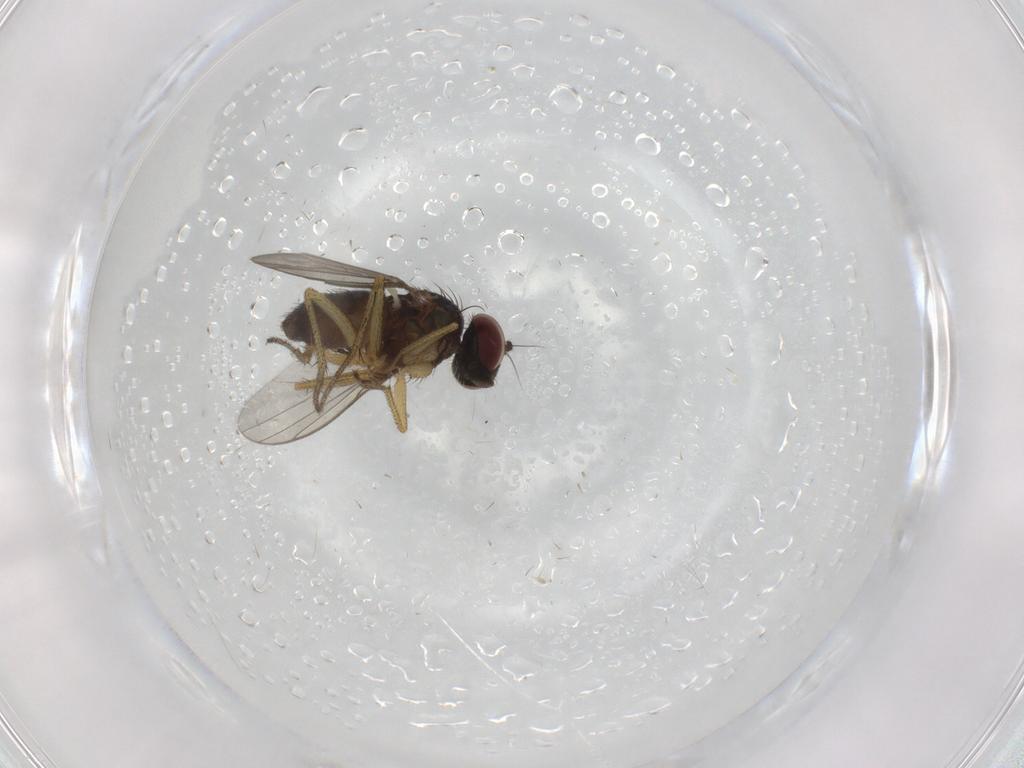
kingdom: Animalia
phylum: Arthropoda
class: Insecta
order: Diptera
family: Dolichopodidae
